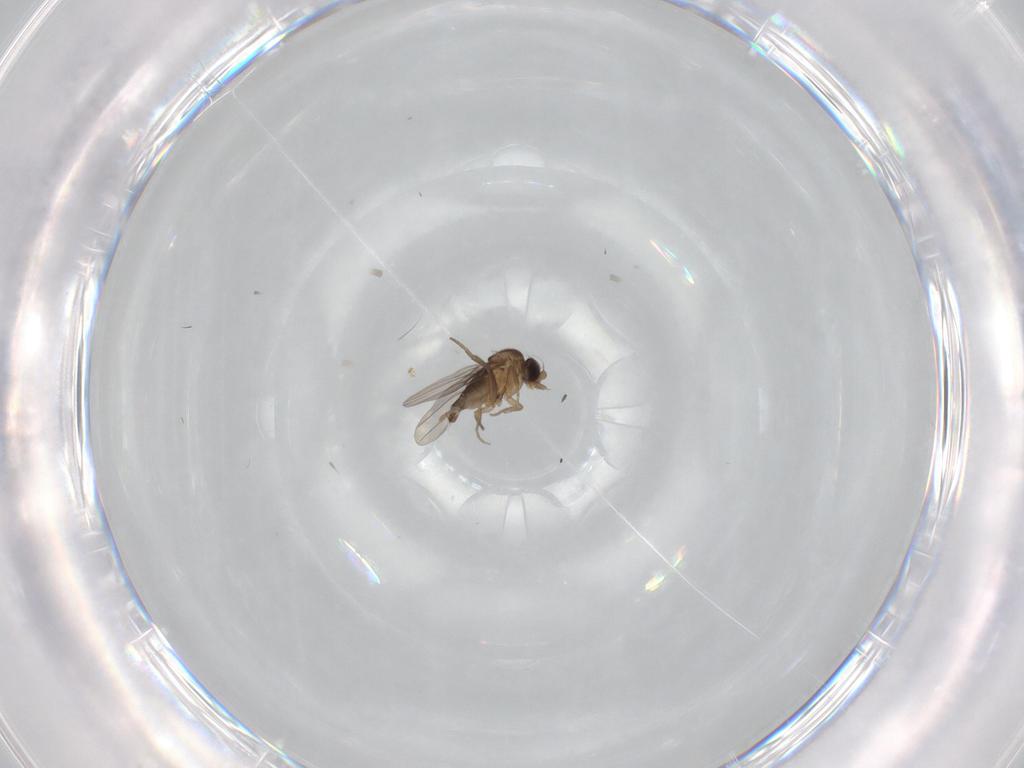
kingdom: Animalia
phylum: Arthropoda
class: Insecta
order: Diptera
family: Phoridae
